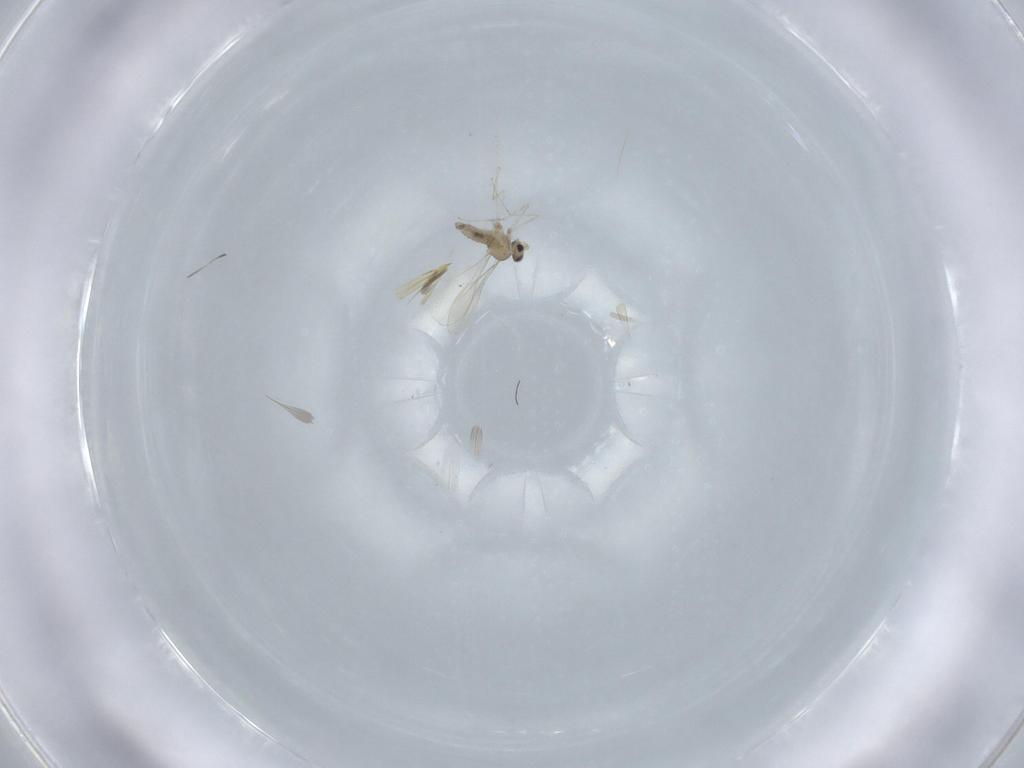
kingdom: Animalia
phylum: Arthropoda
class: Insecta
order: Diptera
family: Cecidomyiidae
